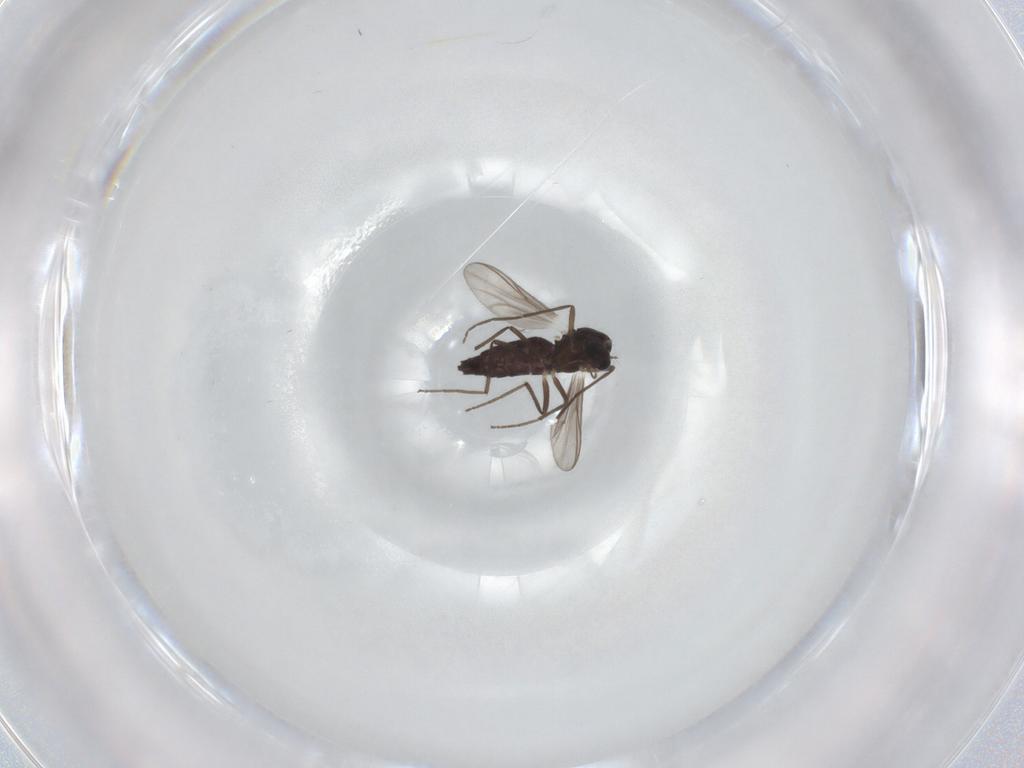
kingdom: Animalia
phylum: Arthropoda
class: Insecta
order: Diptera
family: Chironomidae
